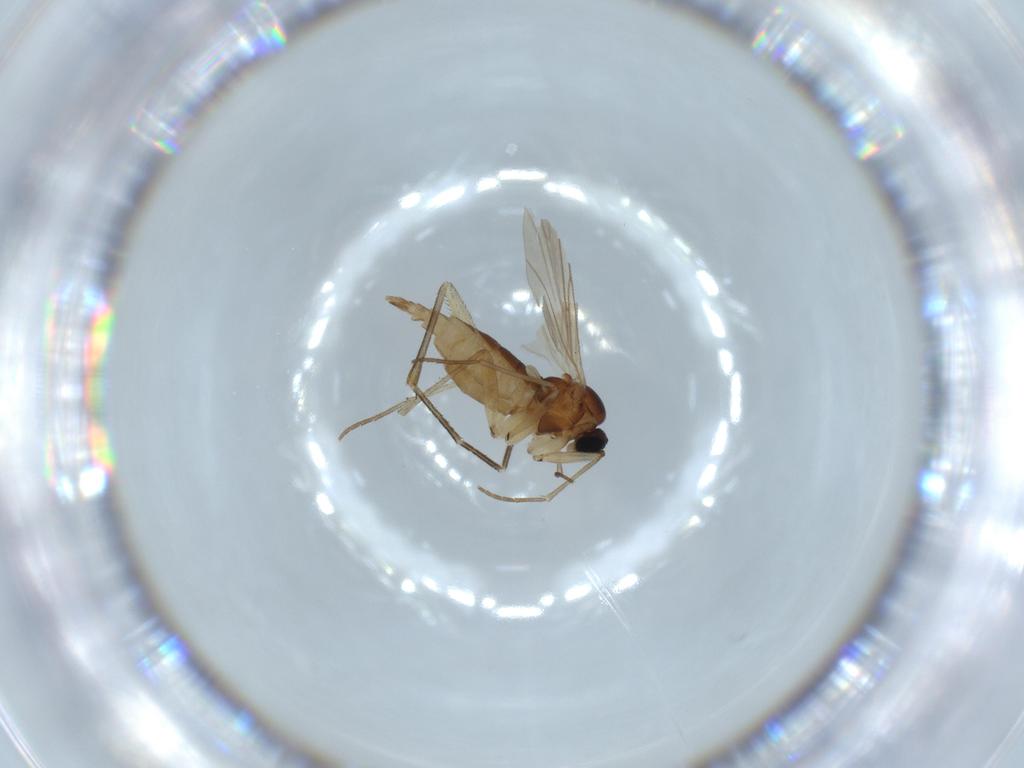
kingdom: Animalia
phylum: Arthropoda
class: Insecta
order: Diptera
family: Sciaridae
